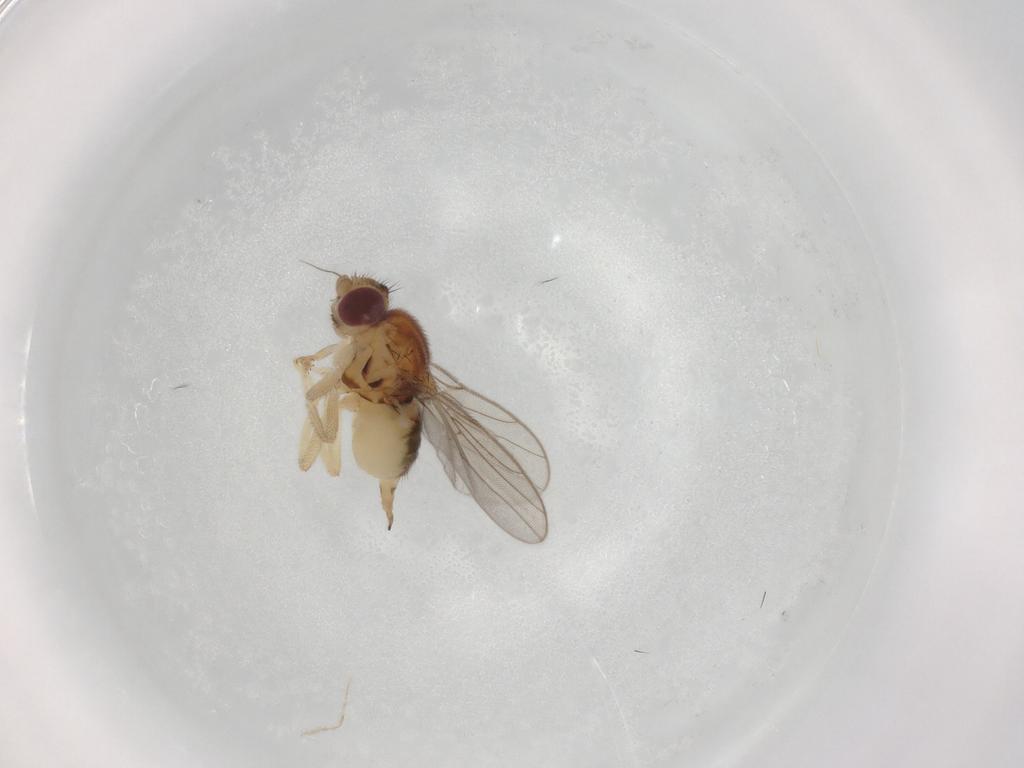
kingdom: Animalia
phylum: Arthropoda
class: Insecta
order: Diptera
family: Chloropidae
